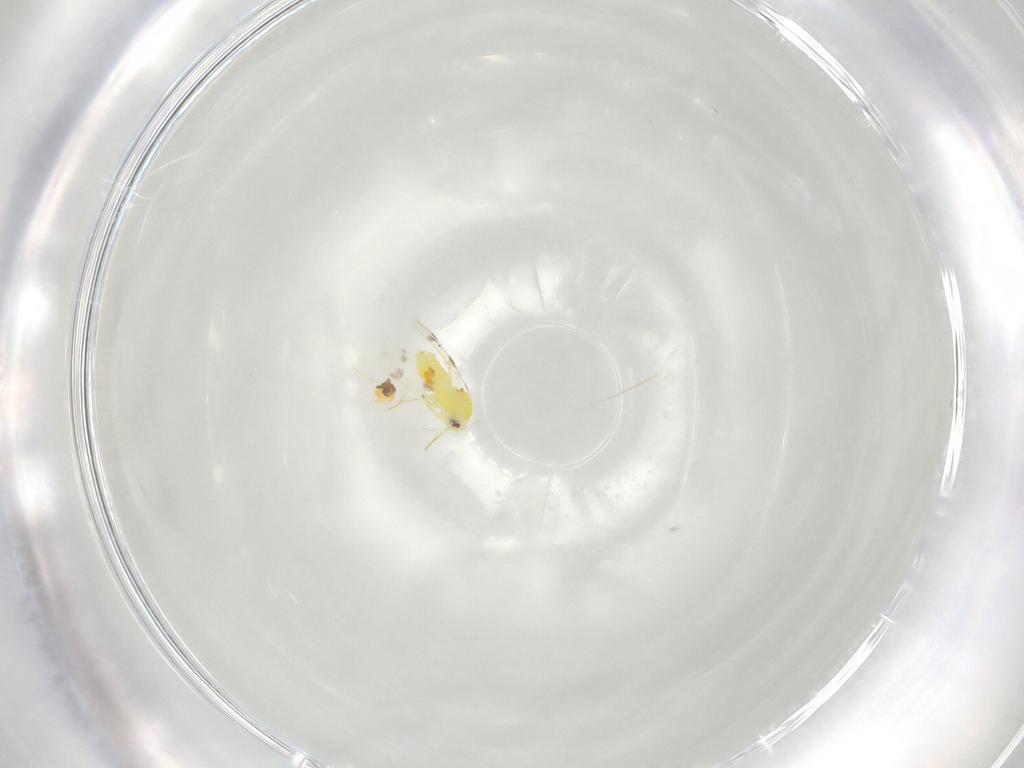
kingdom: Animalia
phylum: Arthropoda
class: Insecta
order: Hemiptera
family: Aleyrodidae
